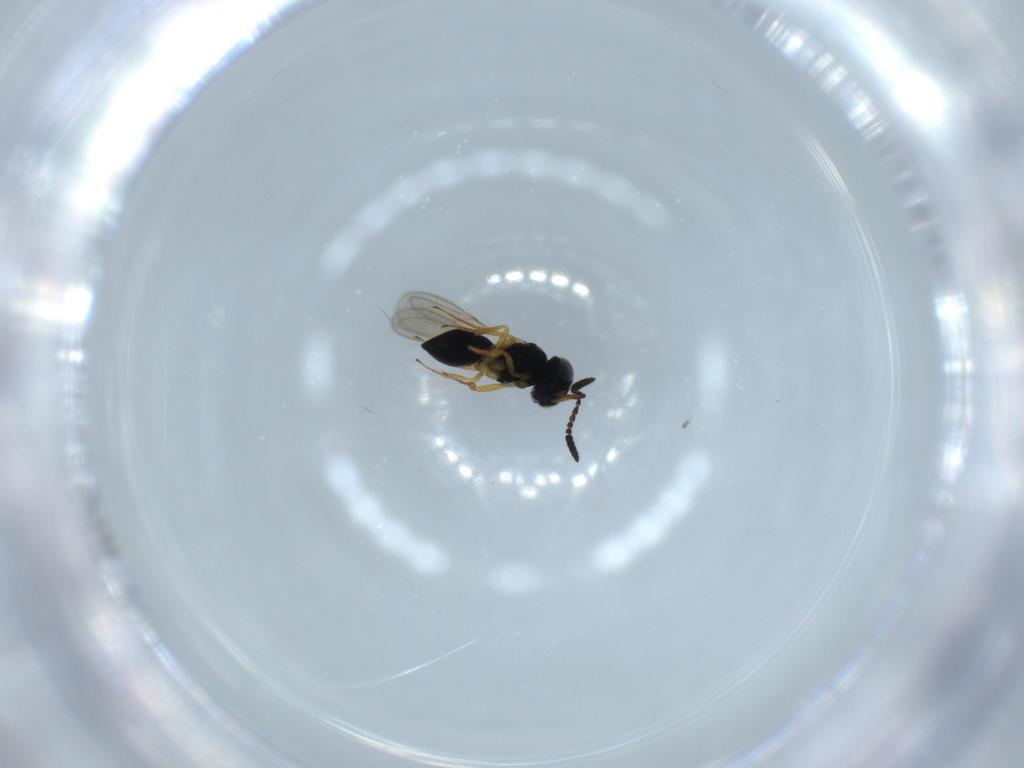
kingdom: Animalia
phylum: Arthropoda
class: Insecta
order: Hymenoptera
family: Scelionidae
